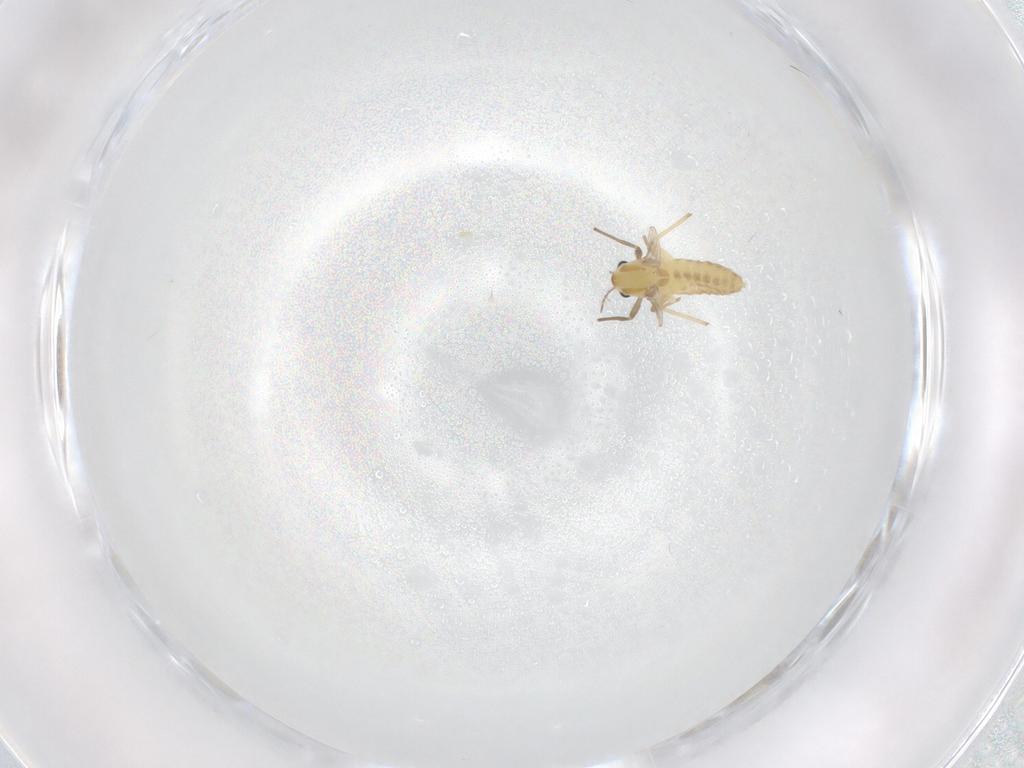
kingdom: Animalia
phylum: Arthropoda
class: Insecta
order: Diptera
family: Chironomidae
